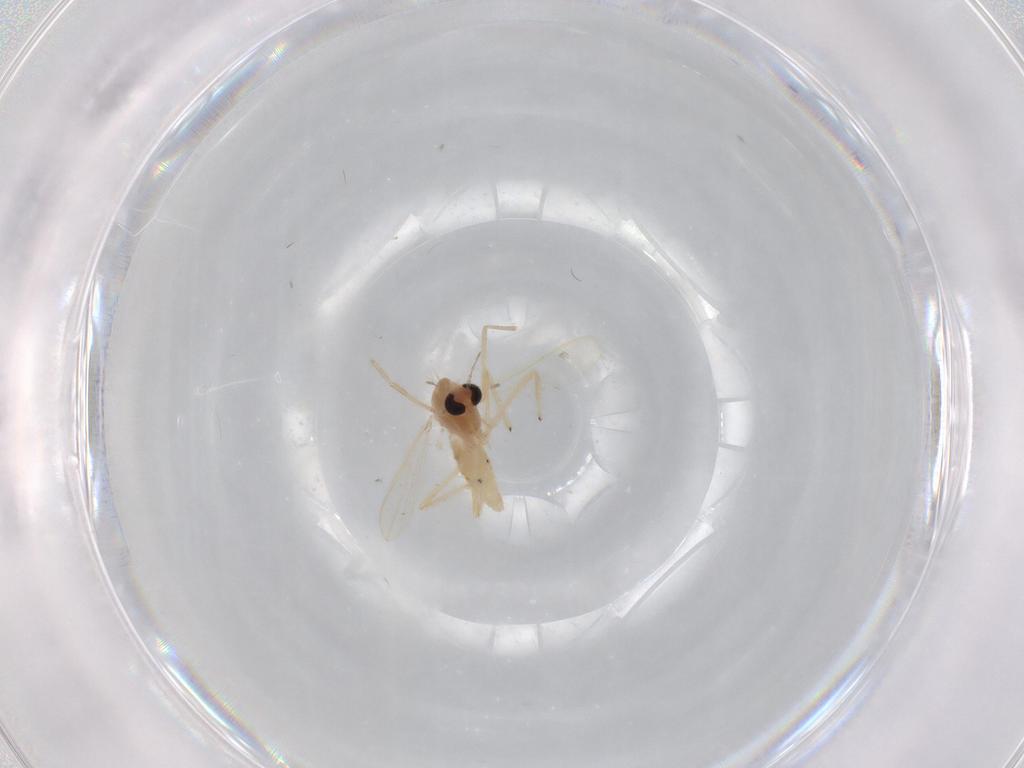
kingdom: Animalia
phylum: Arthropoda
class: Insecta
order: Diptera
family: Chironomidae
